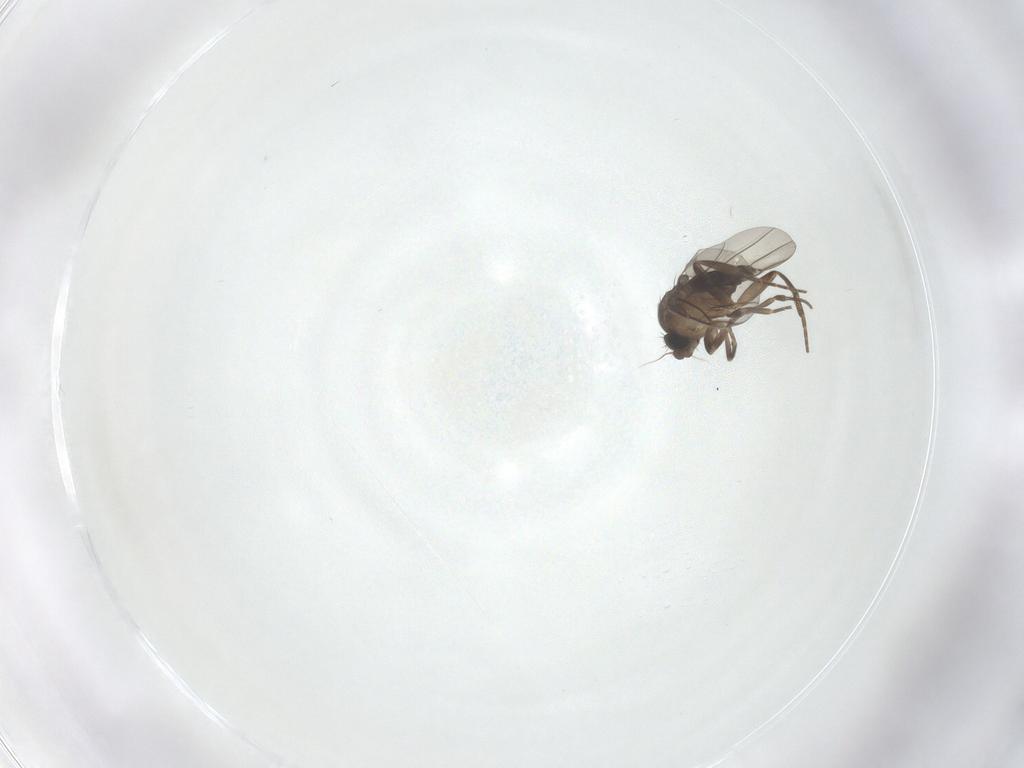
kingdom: Animalia
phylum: Arthropoda
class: Insecta
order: Diptera
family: Phoridae
